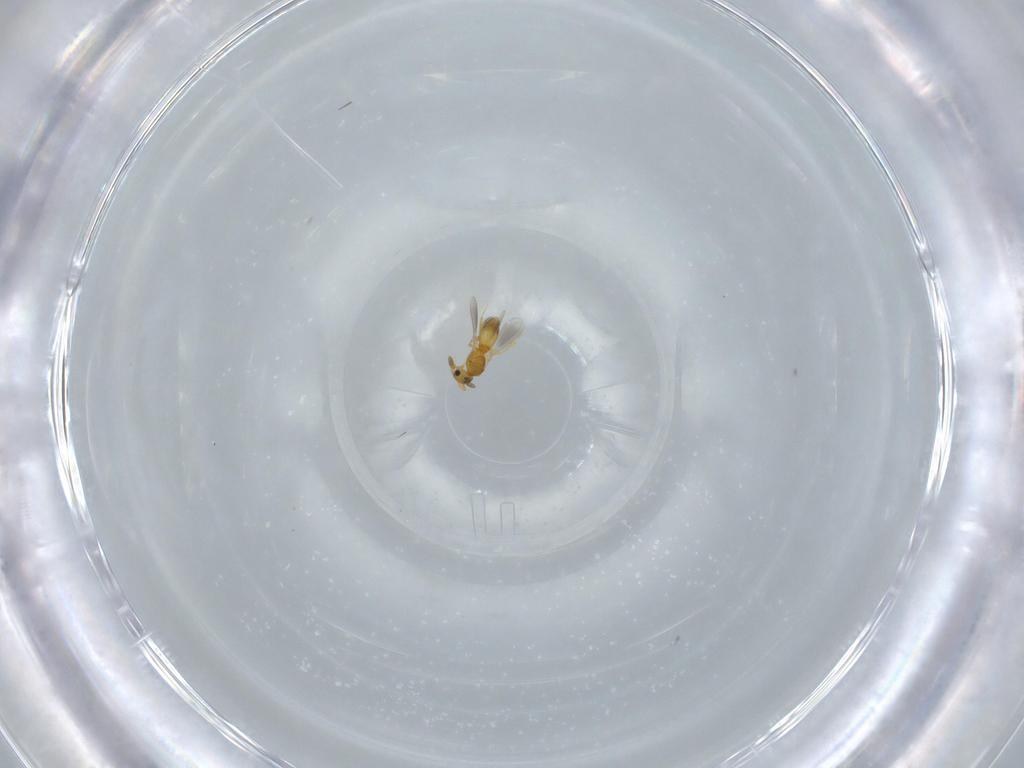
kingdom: Animalia
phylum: Arthropoda
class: Insecta
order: Hymenoptera
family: Platygastridae
